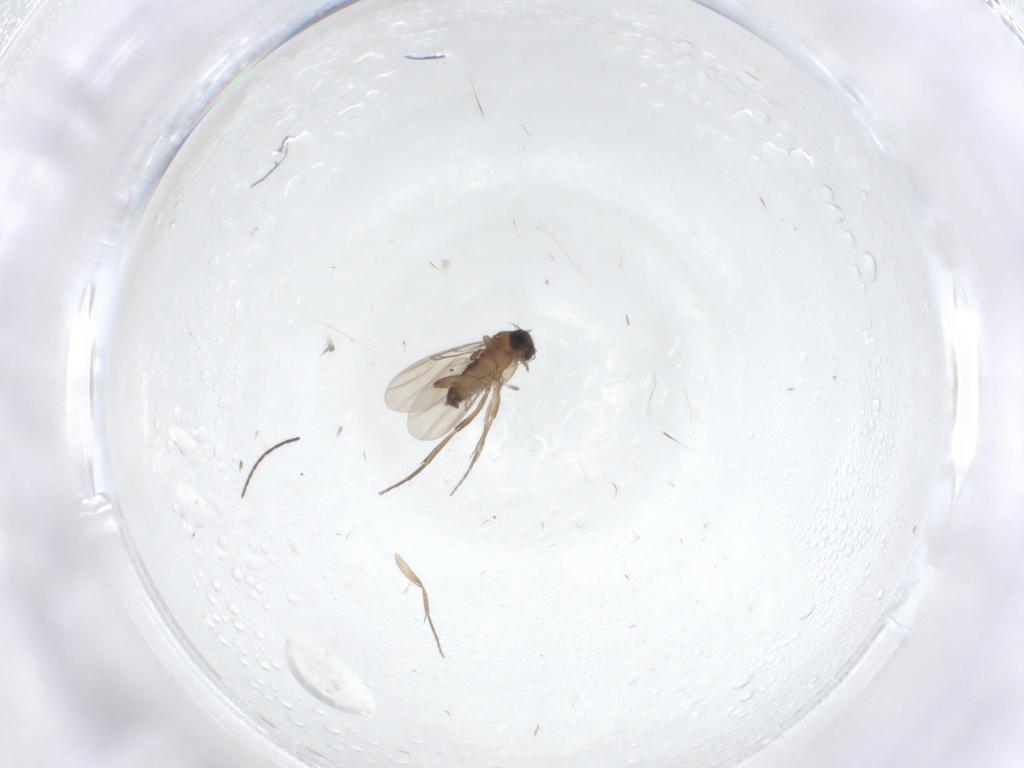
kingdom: Animalia
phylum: Arthropoda
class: Insecta
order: Diptera
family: Phoridae
